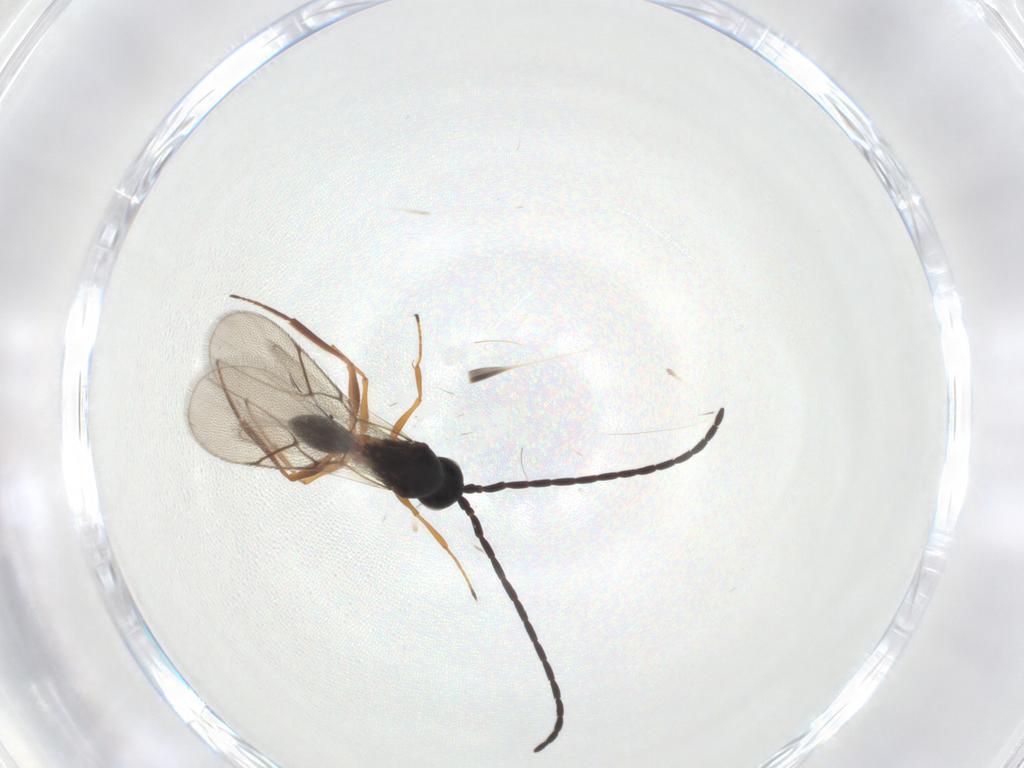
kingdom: Animalia
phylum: Arthropoda
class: Insecta
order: Hymenoptera
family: Figitidae
